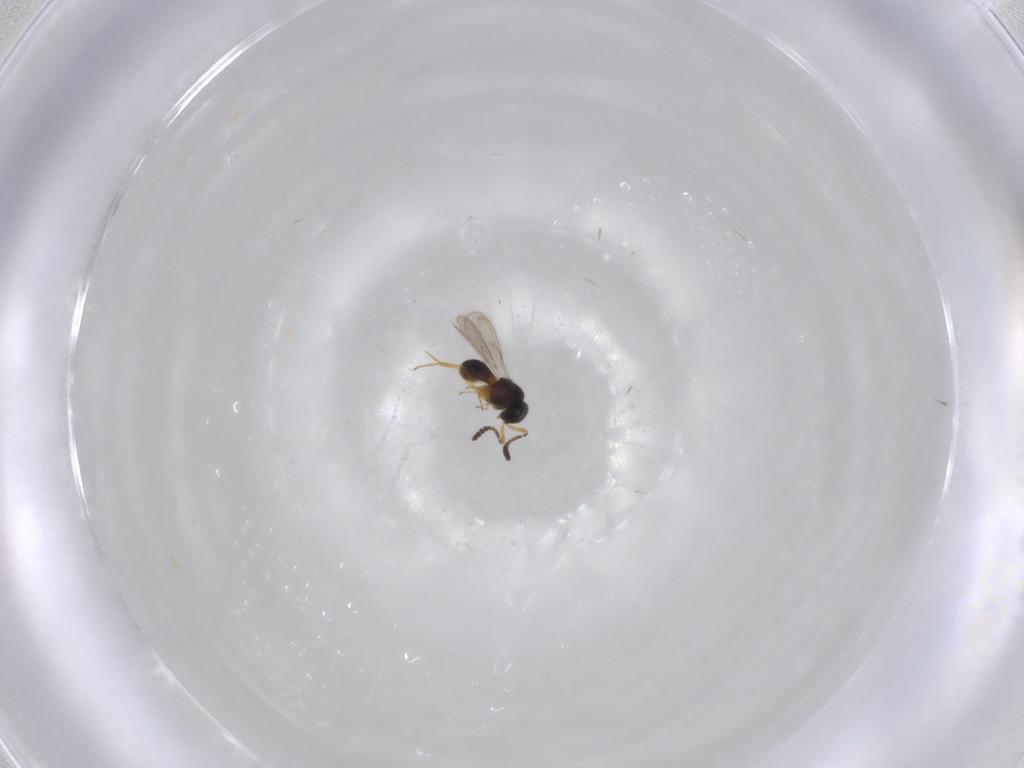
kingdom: Animalia
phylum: Arthropoda
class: Insecta
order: Hymenoptera
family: Scelionidae
